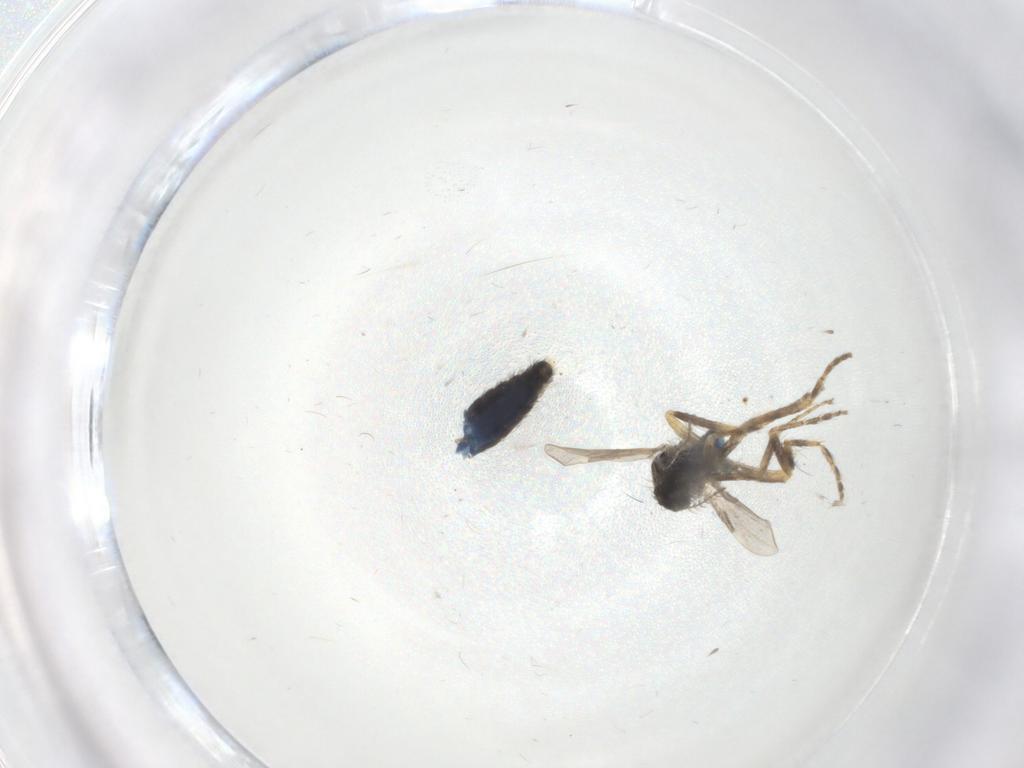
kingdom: Animalia
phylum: Arthropoda
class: Insecta
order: Diptera
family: Ceratopogonidae
